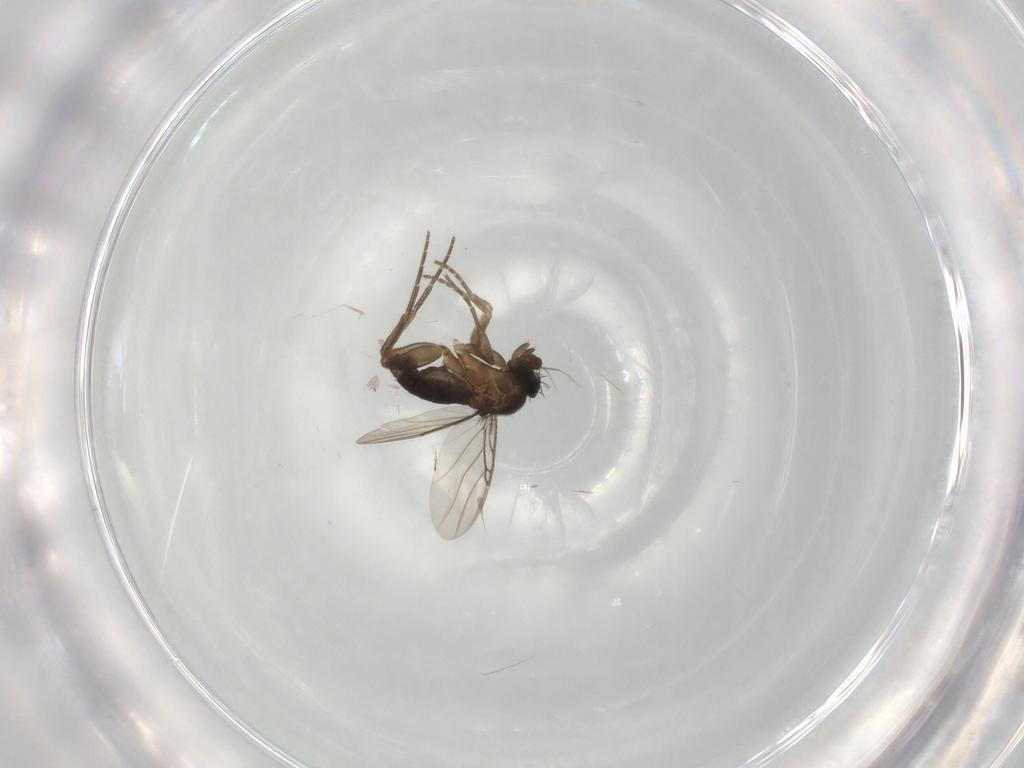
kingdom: Animalia
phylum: Arthropoda
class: Insecta
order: Diptera
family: Phoridae
